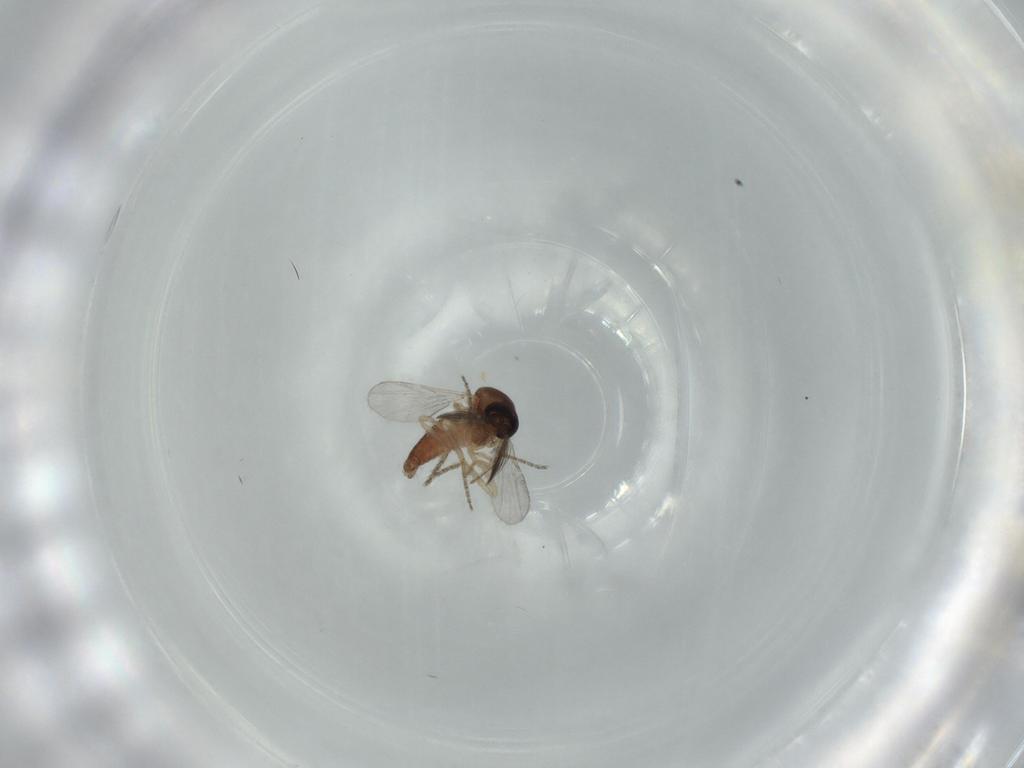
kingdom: Animalia
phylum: Arthropoda
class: Insecta
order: Diptera
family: Ceratopogonidae
